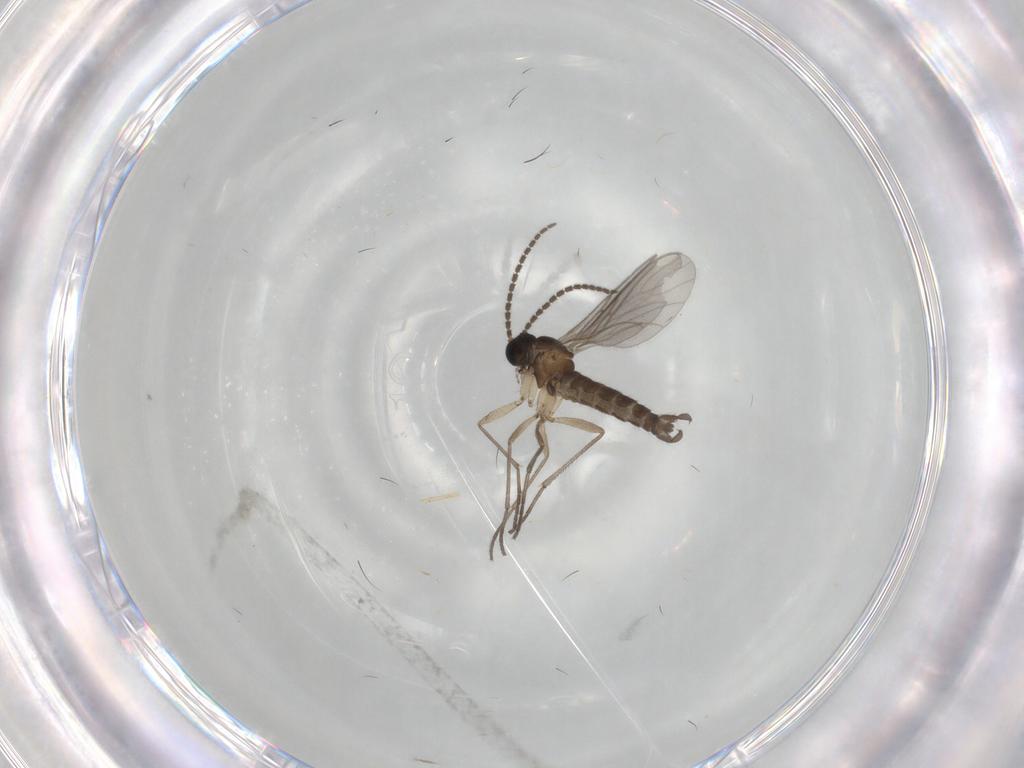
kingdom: Animalia
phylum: Arthropoda
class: Insecta
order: Diptera
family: Sciaridae
